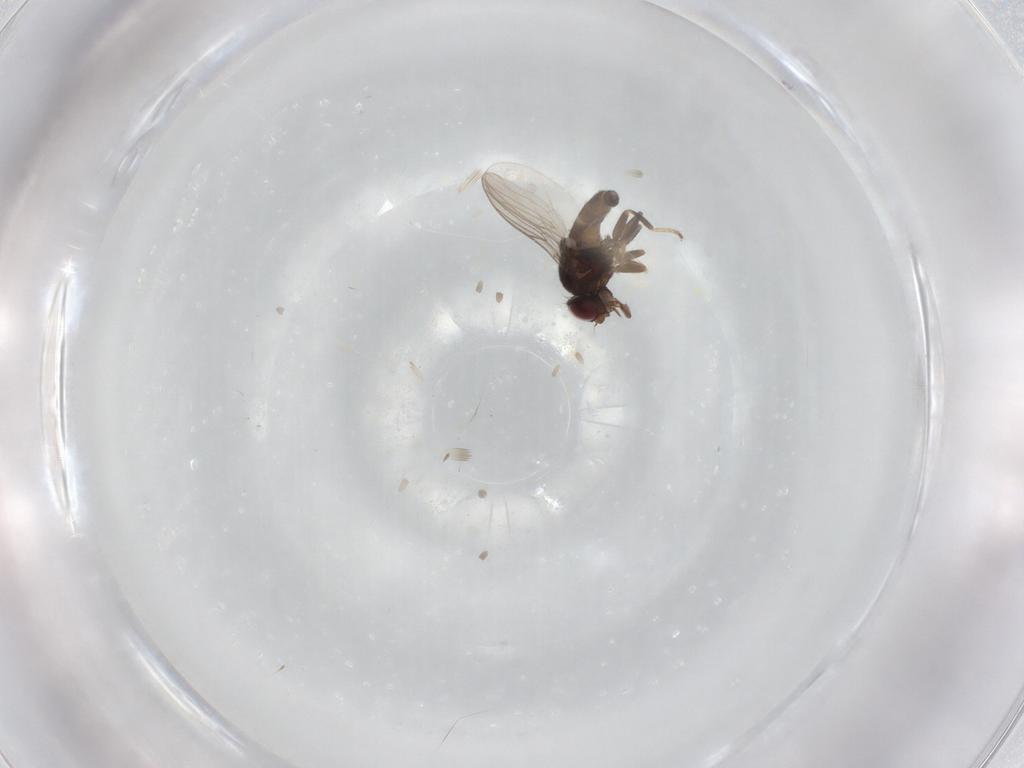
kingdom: Animalia
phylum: Arthropoda
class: Insecta
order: Diptera
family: Chloropidae
